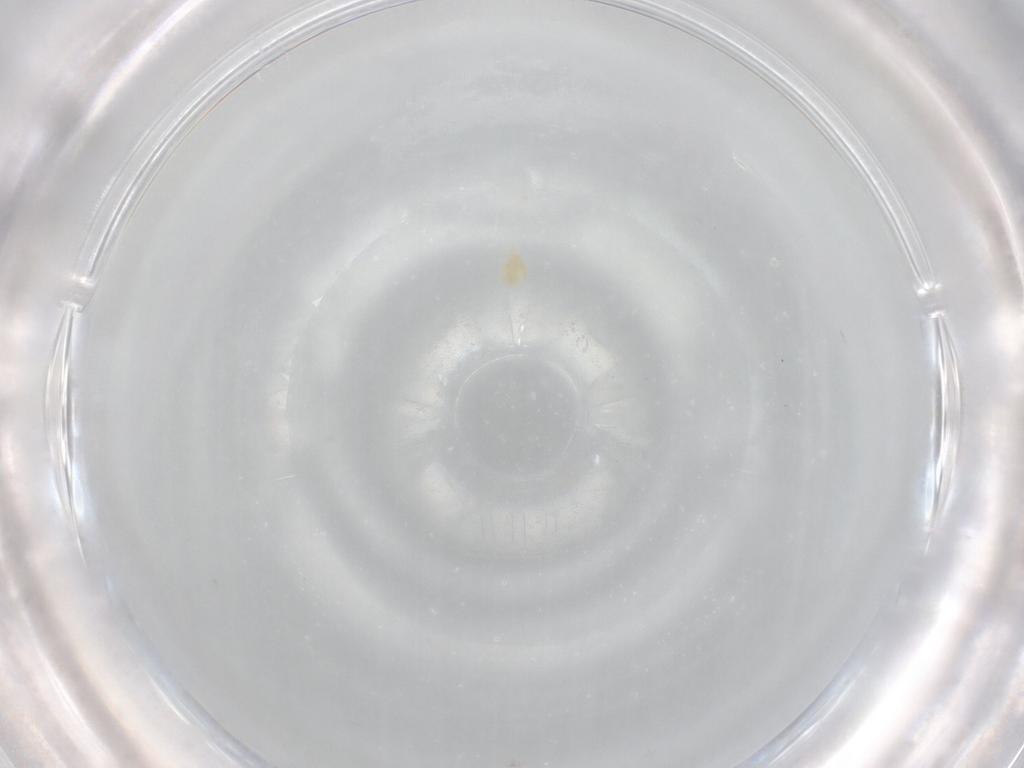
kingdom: Animalia
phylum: Arthropoda
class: Arachnida
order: Trombidiformes
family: Eupodidae
